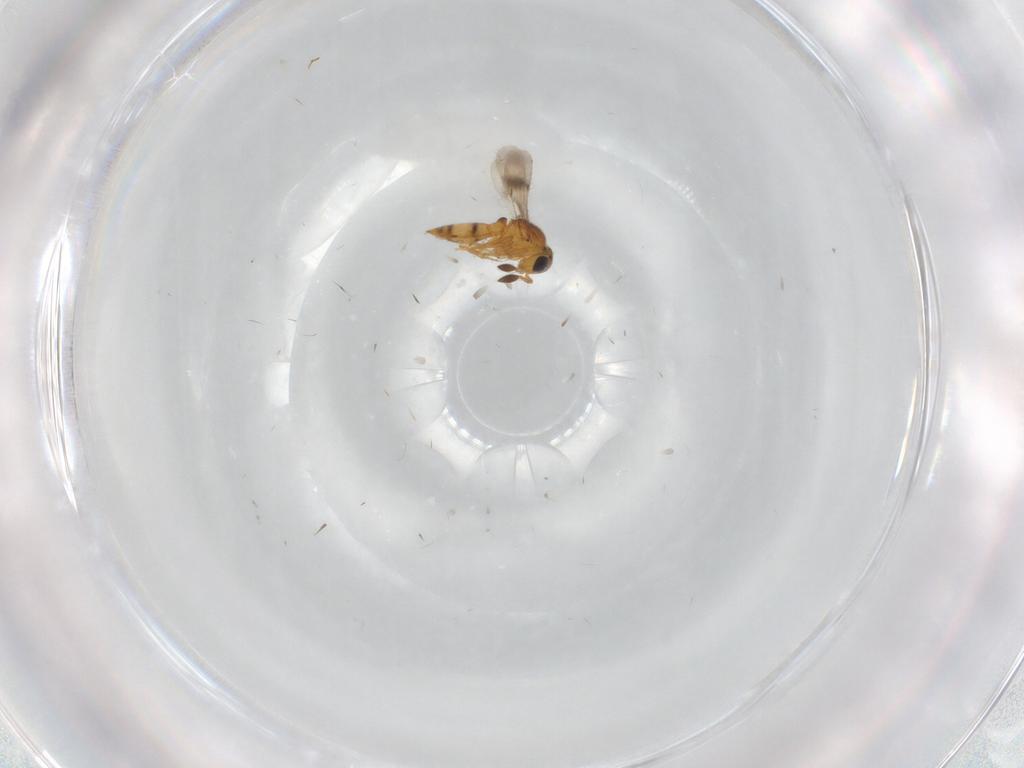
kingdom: Animalia
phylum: Arthropoda
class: Insecta
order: Hymenoptera
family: Scelionidae
